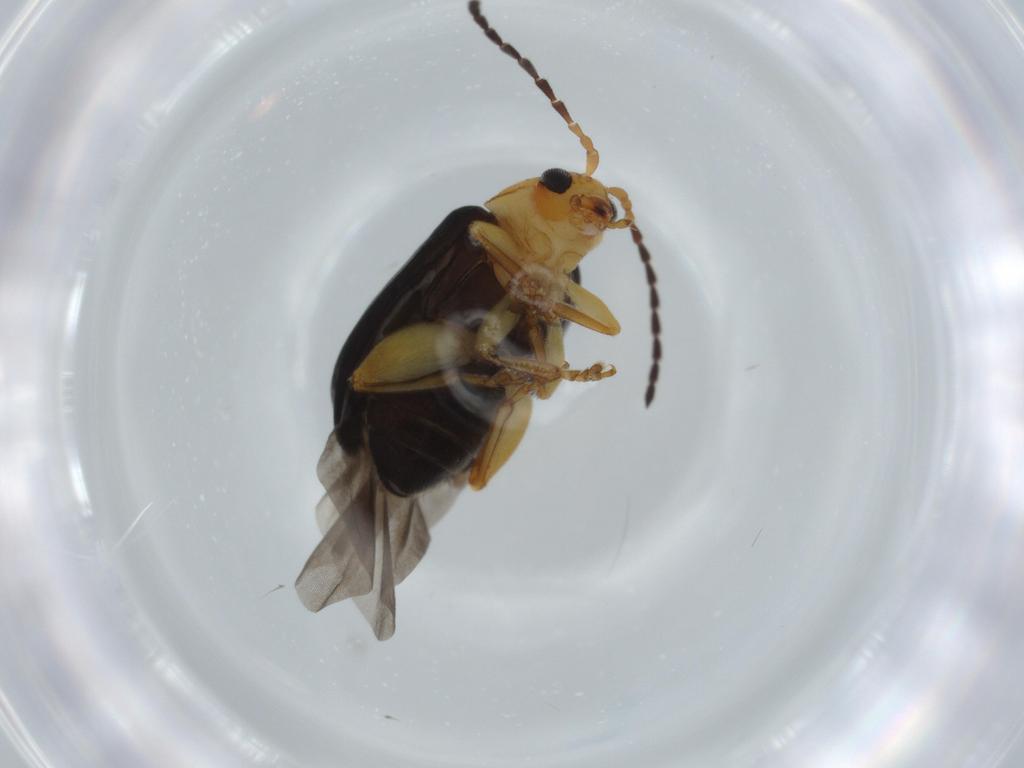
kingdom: Animalia
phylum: Arthropoda
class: Insecta
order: Coleoptera
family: Chrysomelidae
